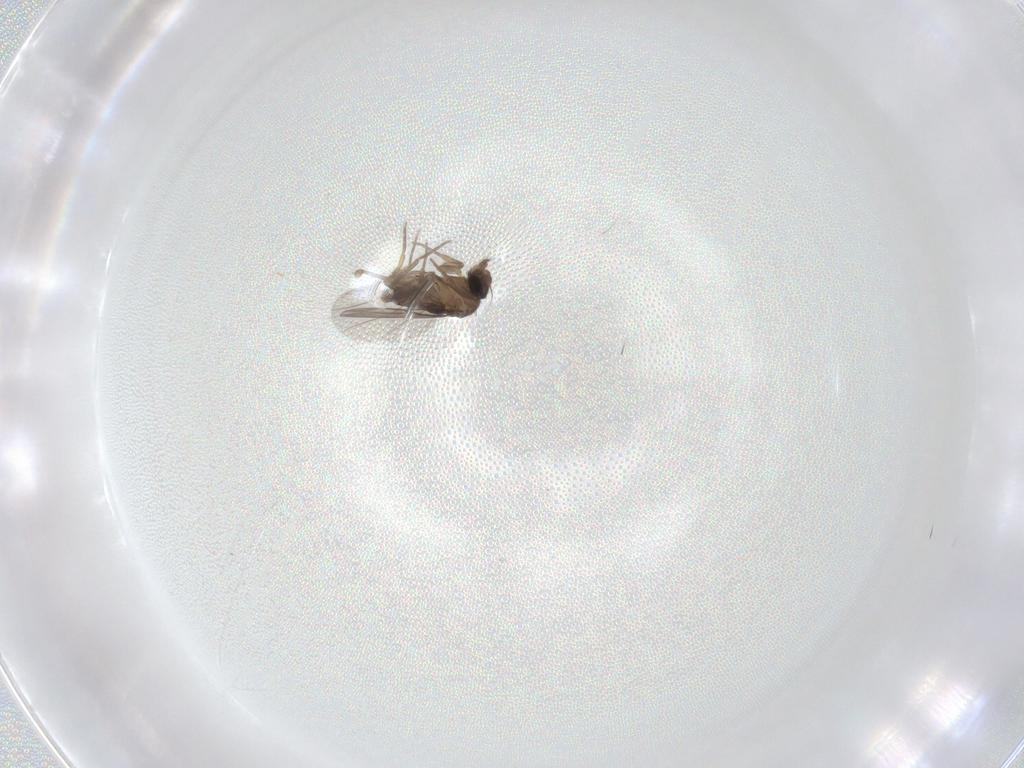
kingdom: Animalia
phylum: Arthropoda
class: Insecta
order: Diptera
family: Phoridae
